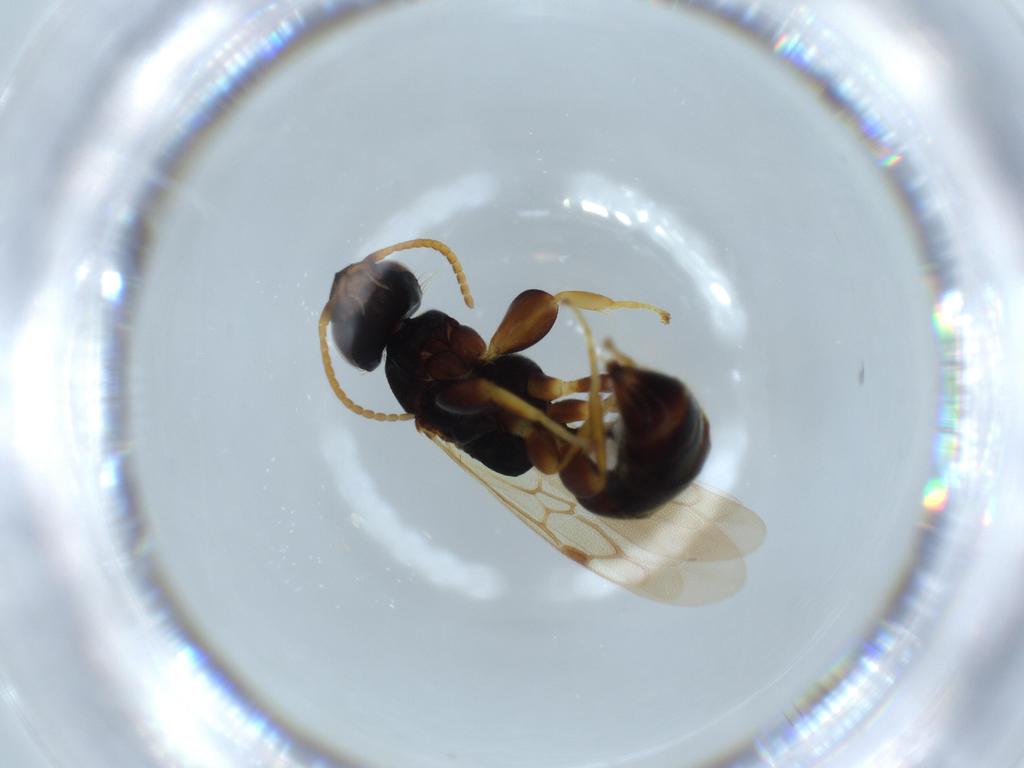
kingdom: Animalia
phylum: Arthropoda
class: Insecta
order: Hymenoptera
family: Bethylidae
